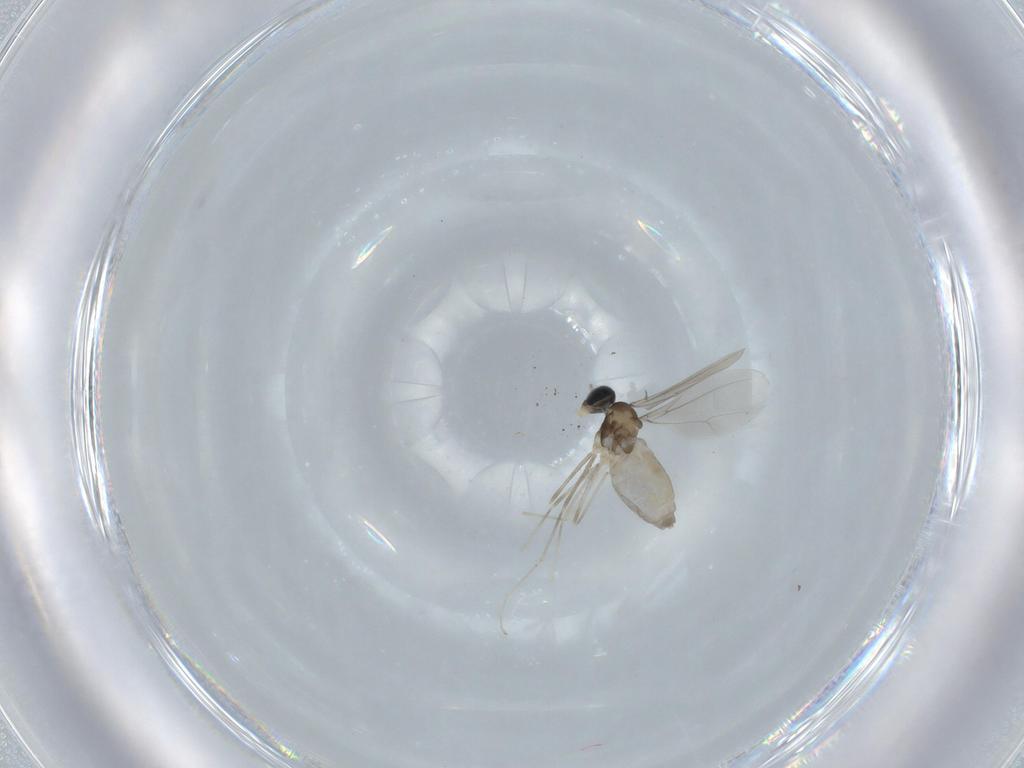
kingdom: Animalia
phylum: Arthropoda
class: Insecta
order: Diptera
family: Cecidomyiidae
